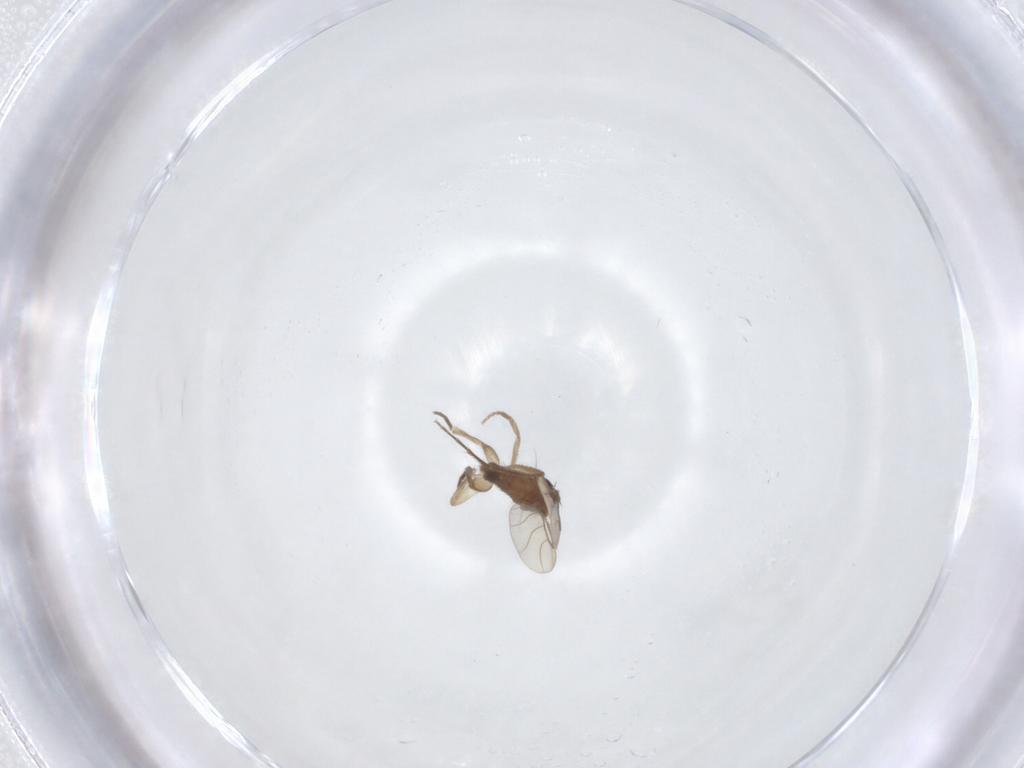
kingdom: Animalia
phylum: Arthropoda
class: Insecta
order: Diptera
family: Phoridae
